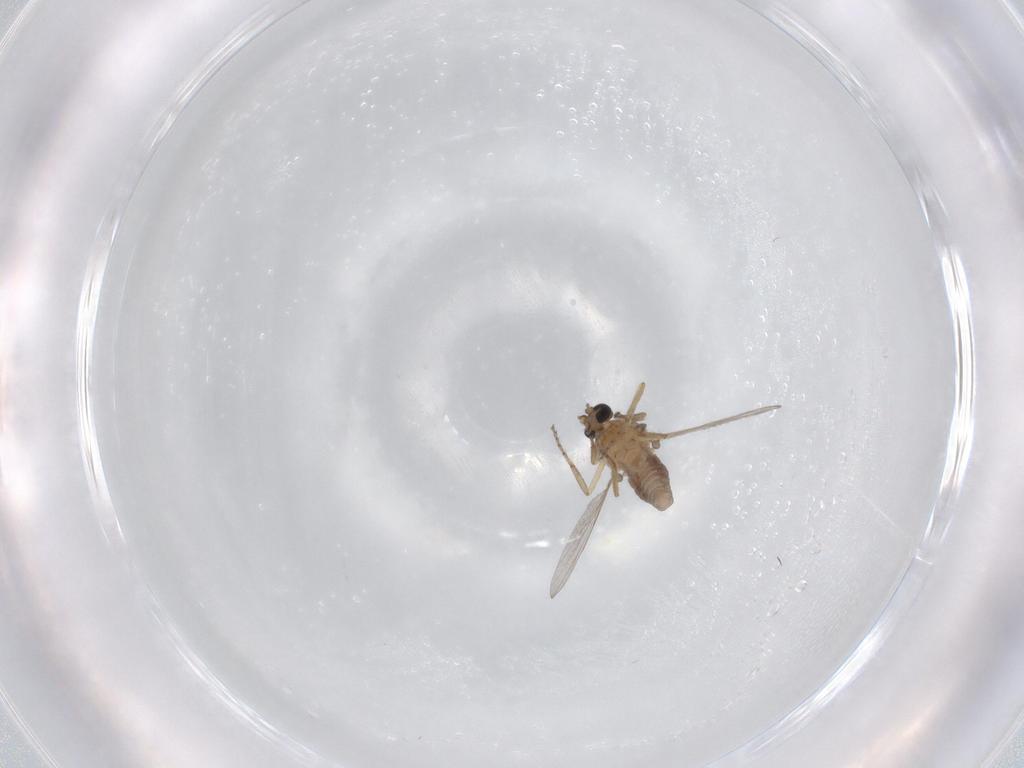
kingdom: Animalia
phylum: Arthropoda
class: Insecta
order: Diptera
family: Ceratopogonidae
